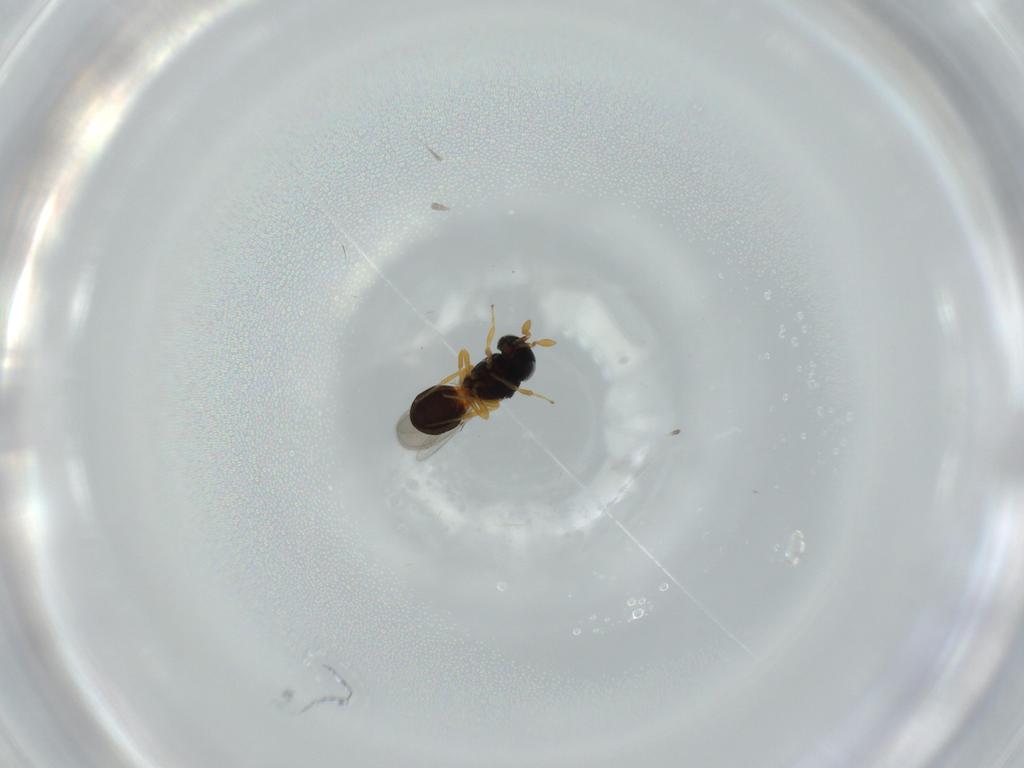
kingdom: Animalia
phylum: Arthropoda
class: Insecta
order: Hymenoptera
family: Scelionidae
